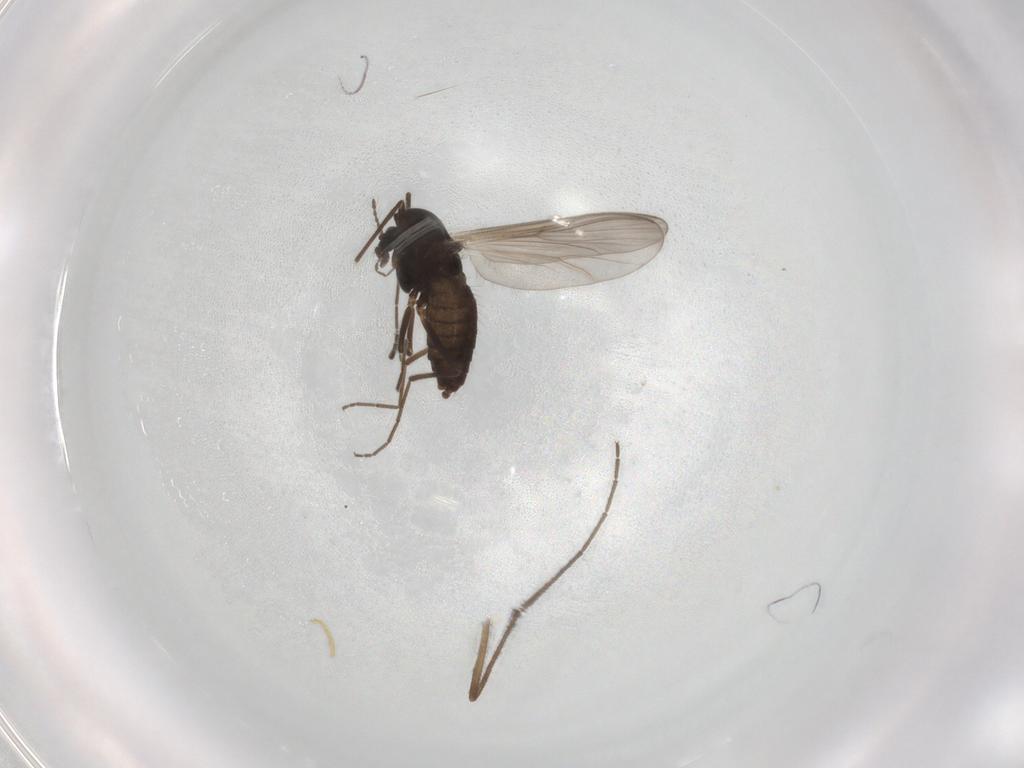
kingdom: Animalia
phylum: Arthropoda
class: Insecta
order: Diptera
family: Chironomidae
